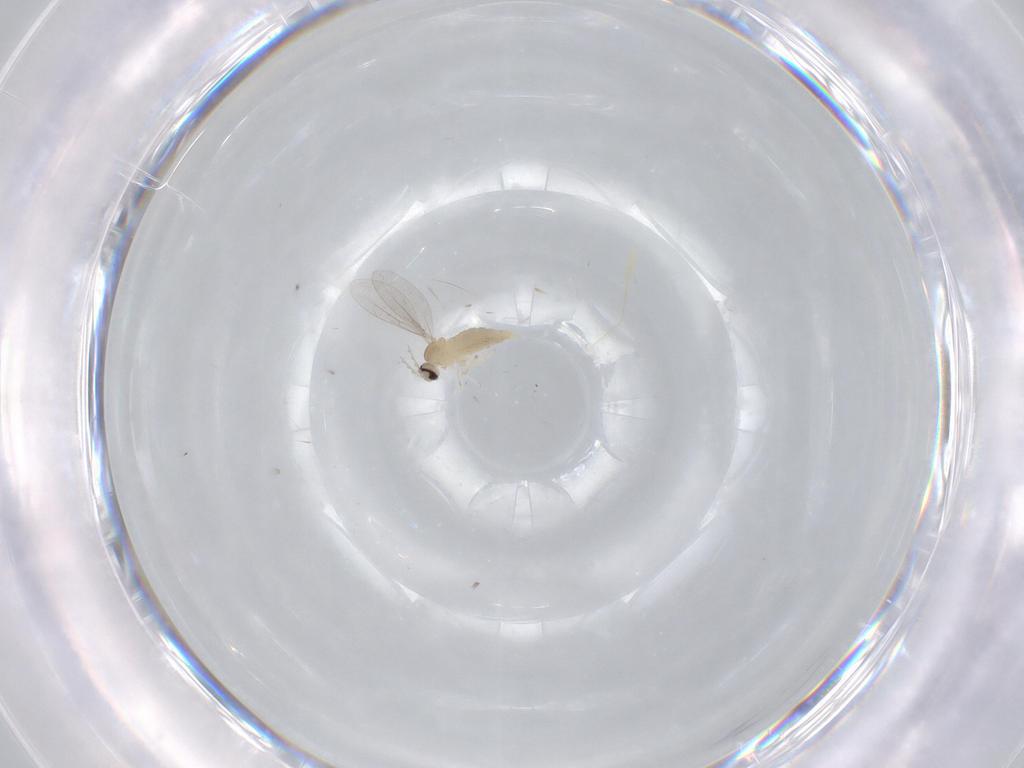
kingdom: Animalia
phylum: Arthropoda
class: Insecta
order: Diptera
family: Cecidomyiidae
